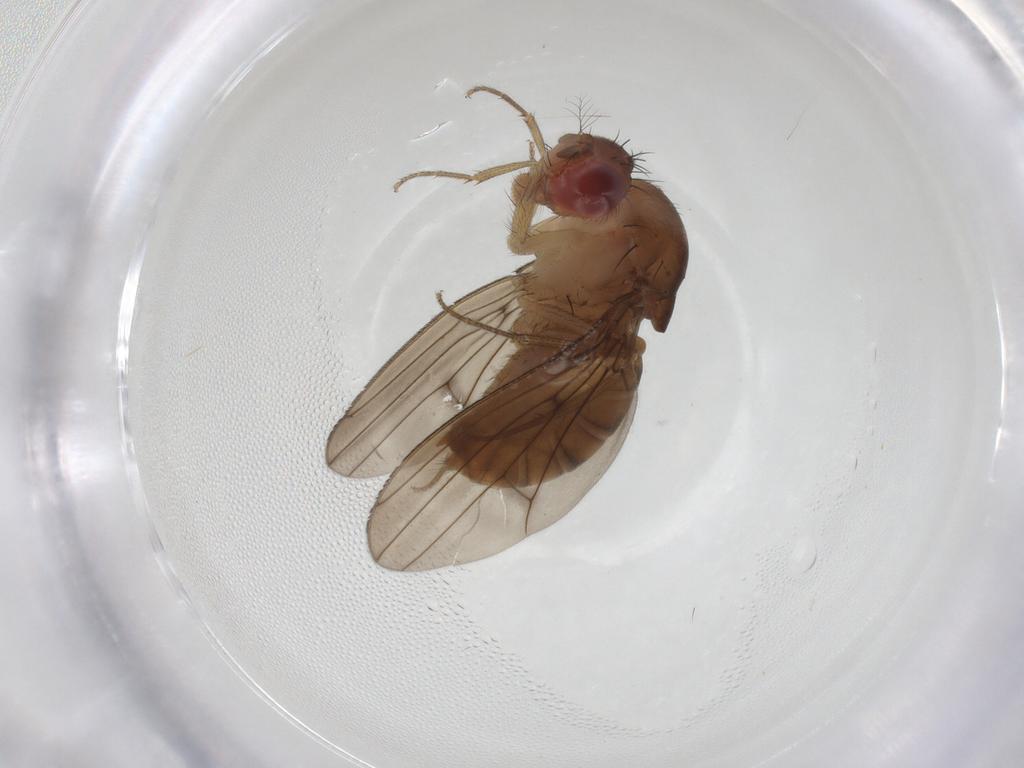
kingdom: Animalia
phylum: Arthropoda
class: Insecta
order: Diptera
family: Drosophilidae
